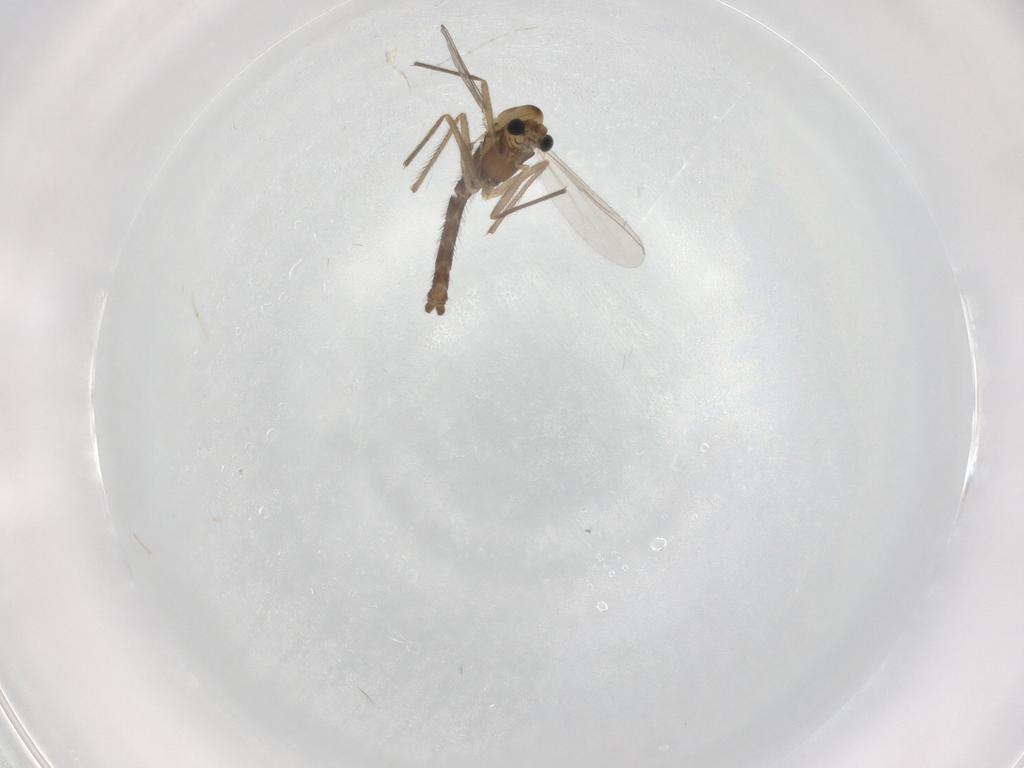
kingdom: Animalia
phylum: Arthropoda
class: Insecta
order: Diptera
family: Chironomidae
